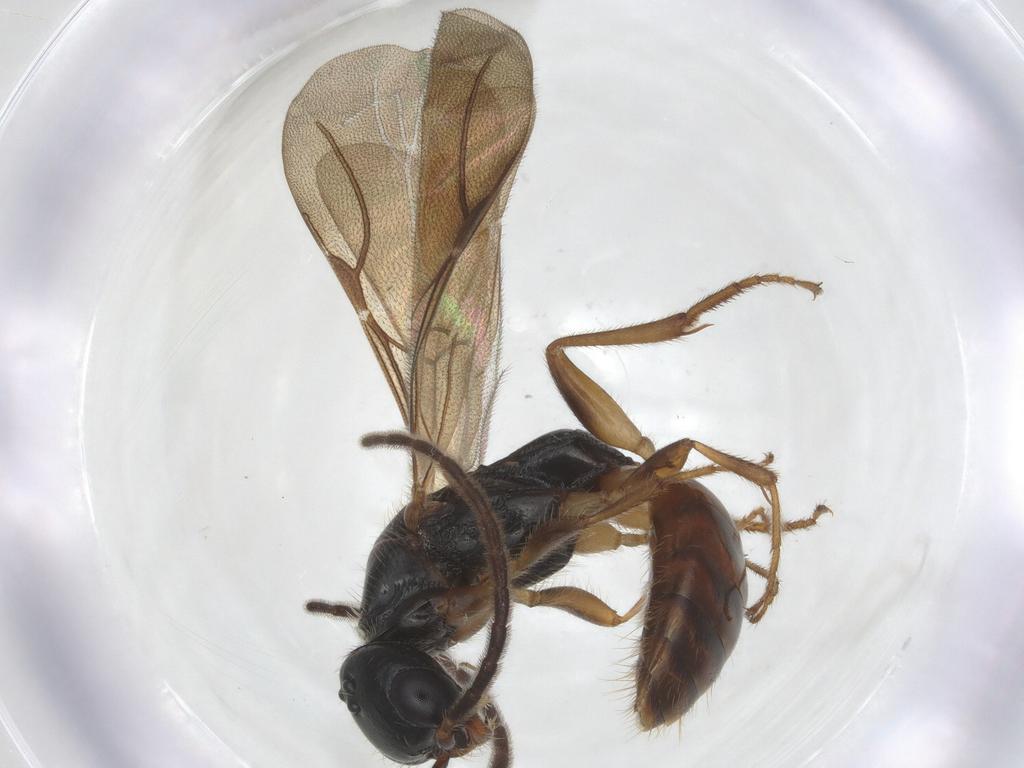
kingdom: Animalia
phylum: Arthropoda
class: Insecta
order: Hymenoptera
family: Bethylidae
